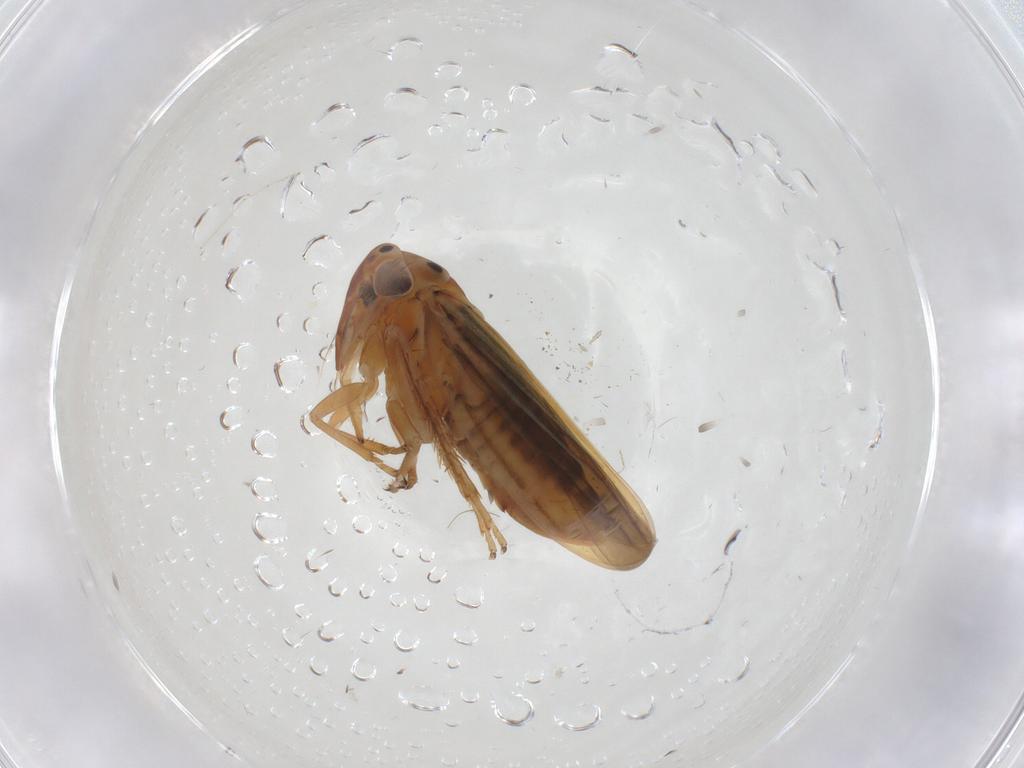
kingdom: Animalia
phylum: Arthropoda
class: Insecta
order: Hemiptera
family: Cicadellidae
